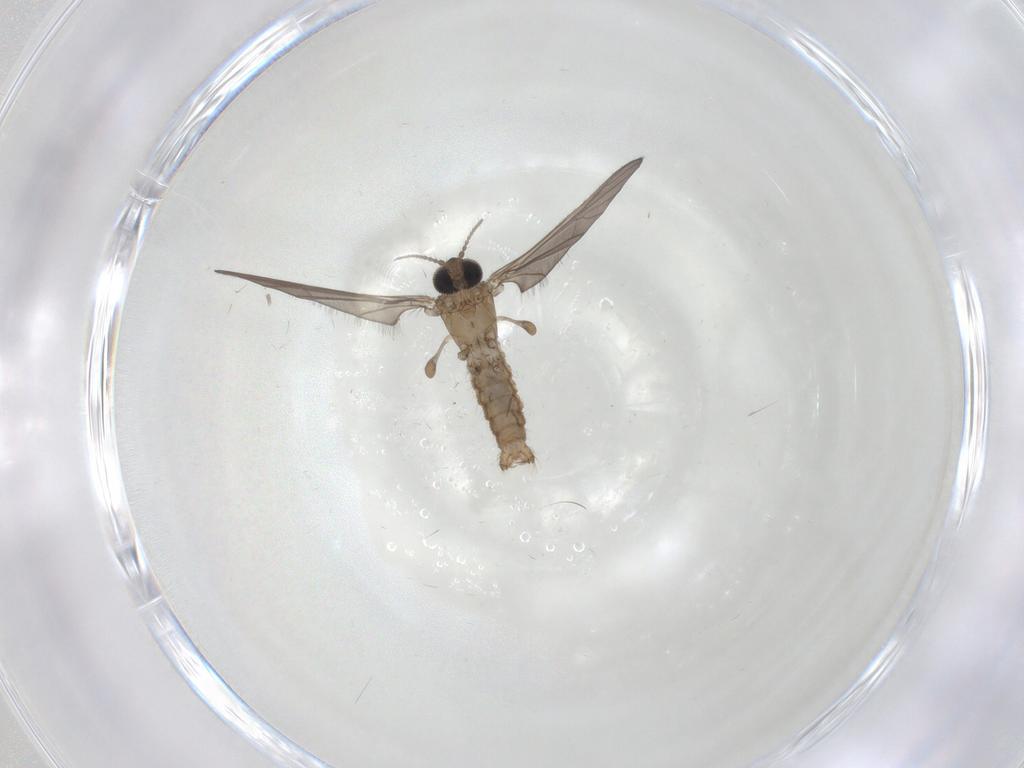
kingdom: Animalia
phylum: Arthropoda
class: Insecta
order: Diptera
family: Limoniidae
